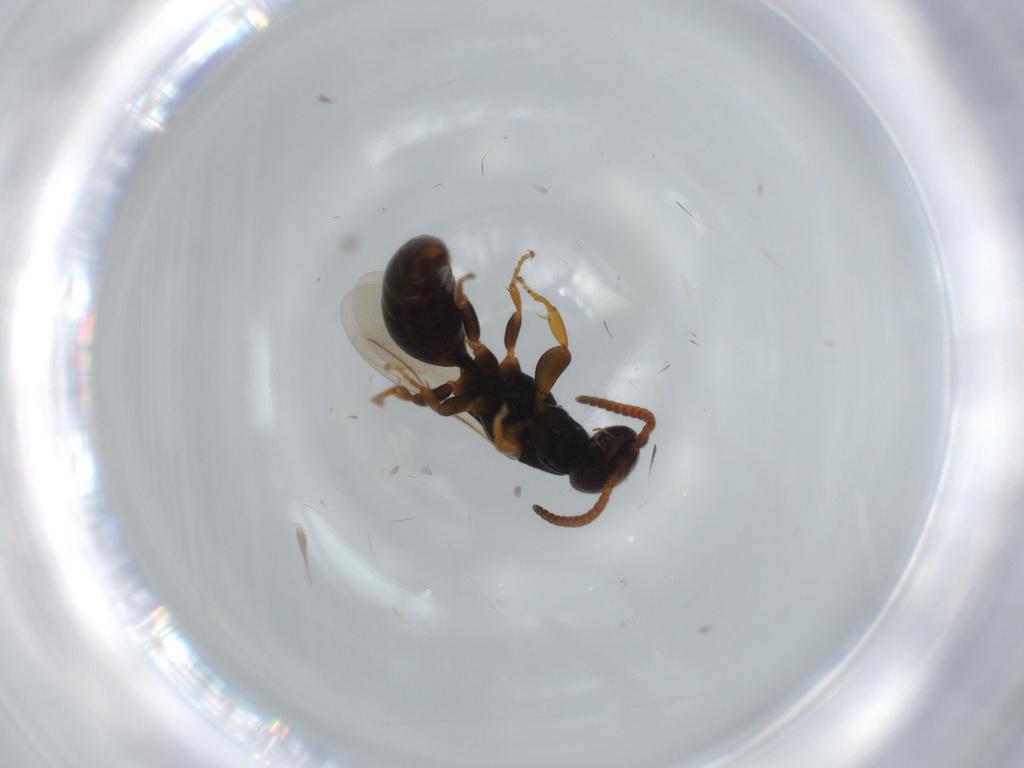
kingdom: Animalia
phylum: Arthropoda
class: Insecta
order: Hymenoptera
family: Bethylidae
